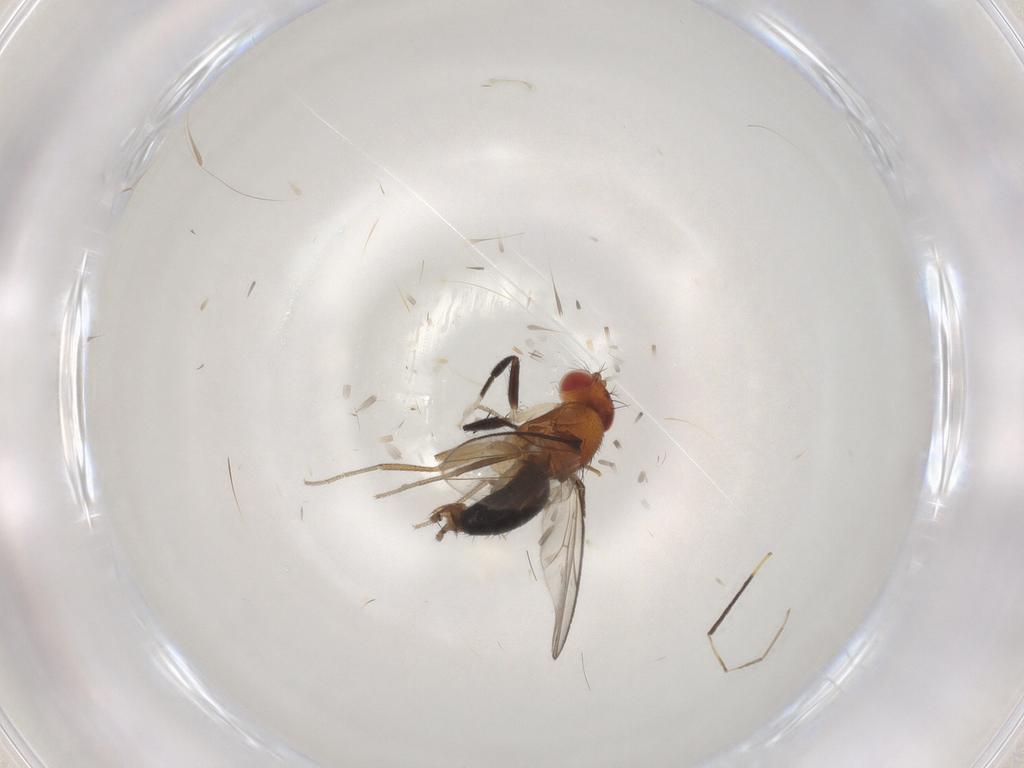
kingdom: Animalia
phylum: Arthropoda
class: Insecta
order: Diptera
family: Drosophilidae
